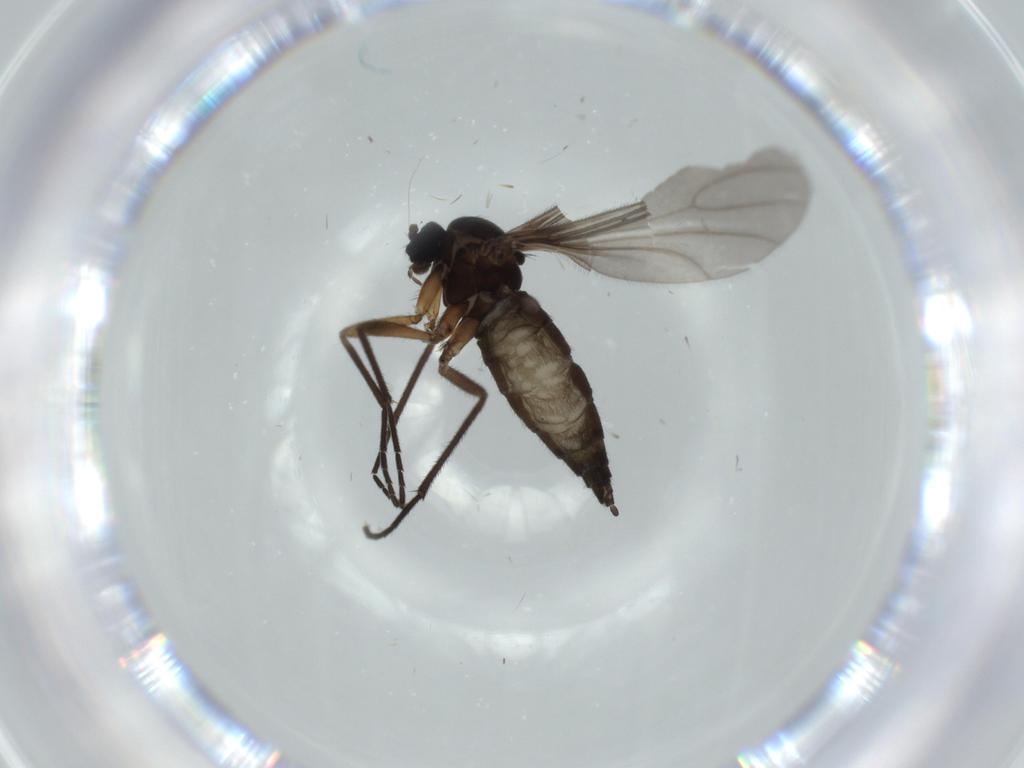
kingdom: Animalia
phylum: Arthropoda
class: Insecta
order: Diptera
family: Sciaridae
